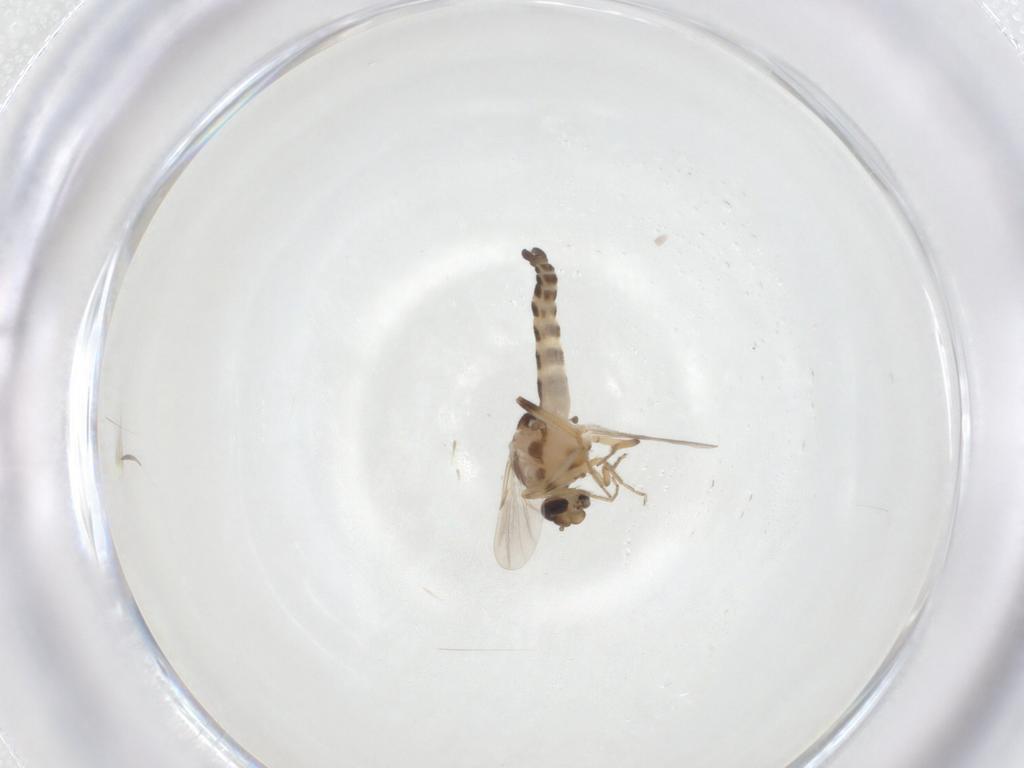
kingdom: Animalia
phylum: Arthropoda
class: Insecta
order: Diptera
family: Ceratopogonidae
